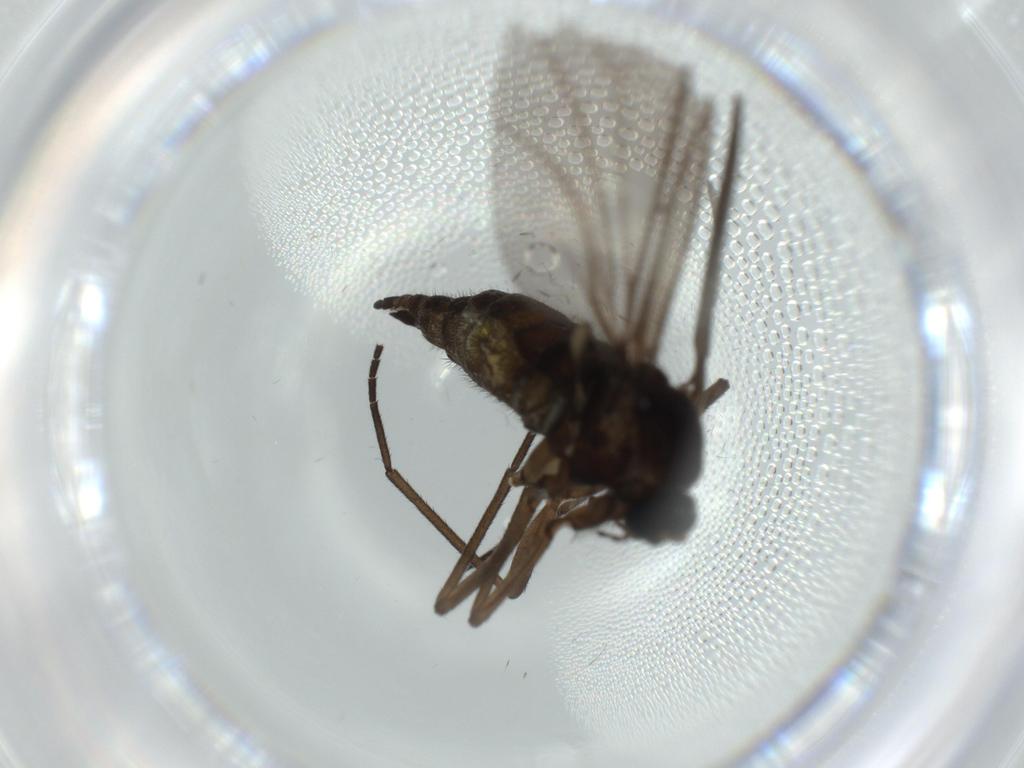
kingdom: Animalia
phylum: Arthropoda
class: Insecta
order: Diptera
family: Sciaridae
